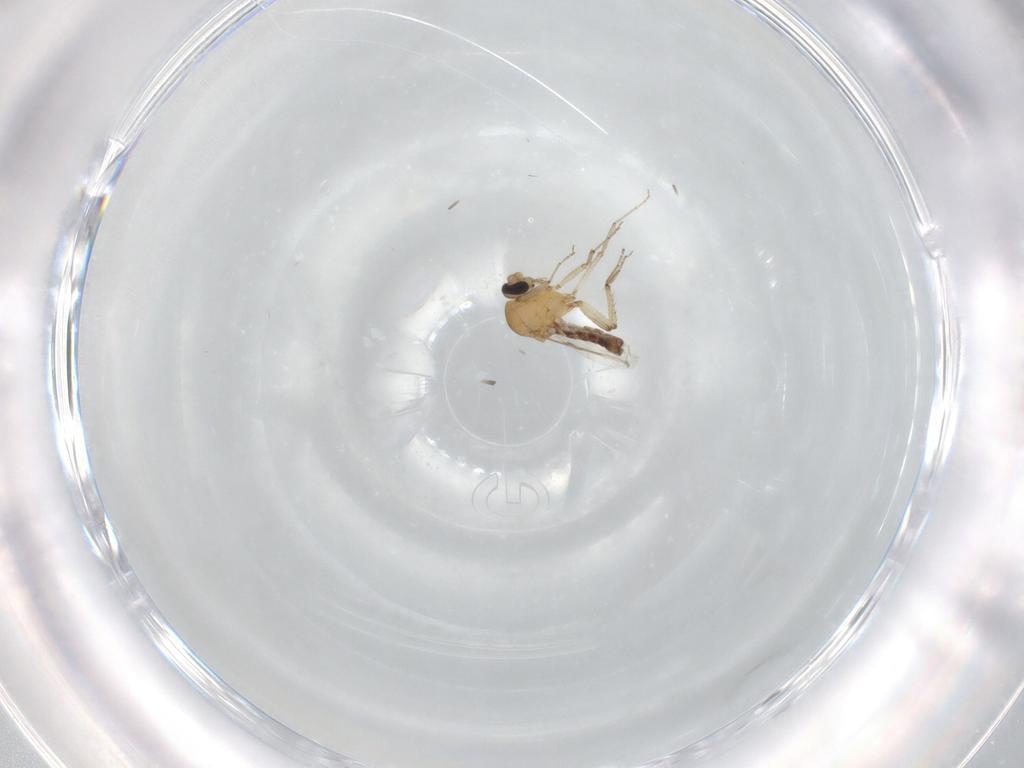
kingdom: Animalia
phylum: Arthropoda
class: Insecta
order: Diptera
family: Ceratopogonidae
